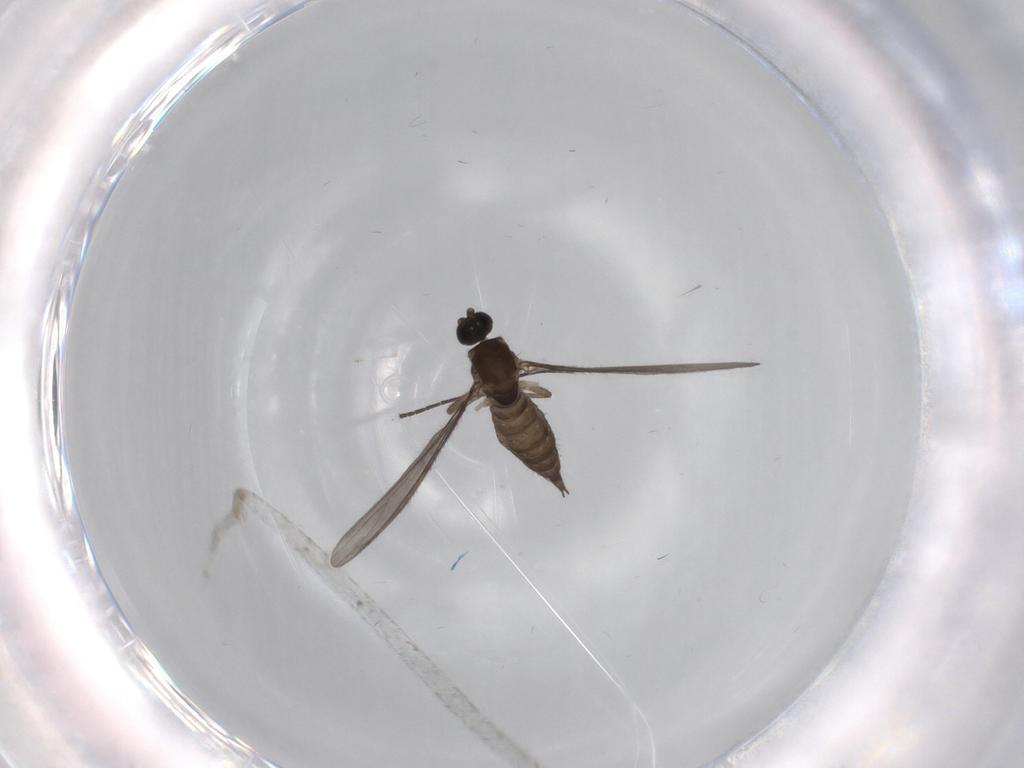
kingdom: Animalia
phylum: Arthropoda
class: Insecta
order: Diptera
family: Sciaridae
